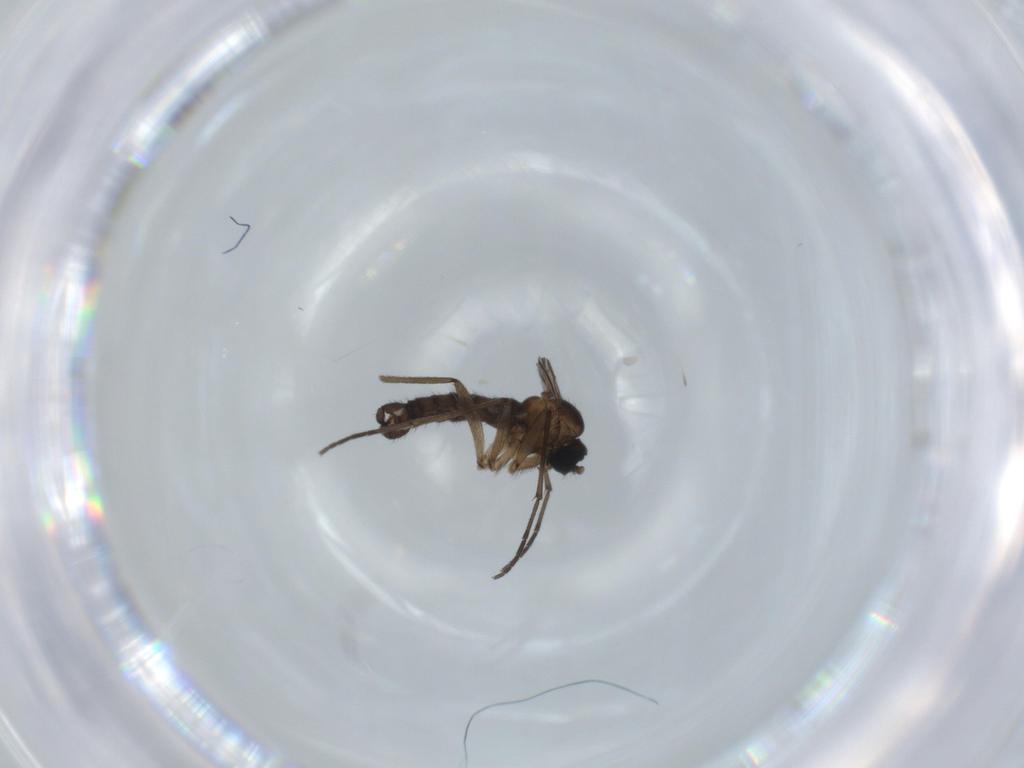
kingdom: Animalia
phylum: Arthropoda
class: Insecta
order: Diptera
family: Sciaridae
